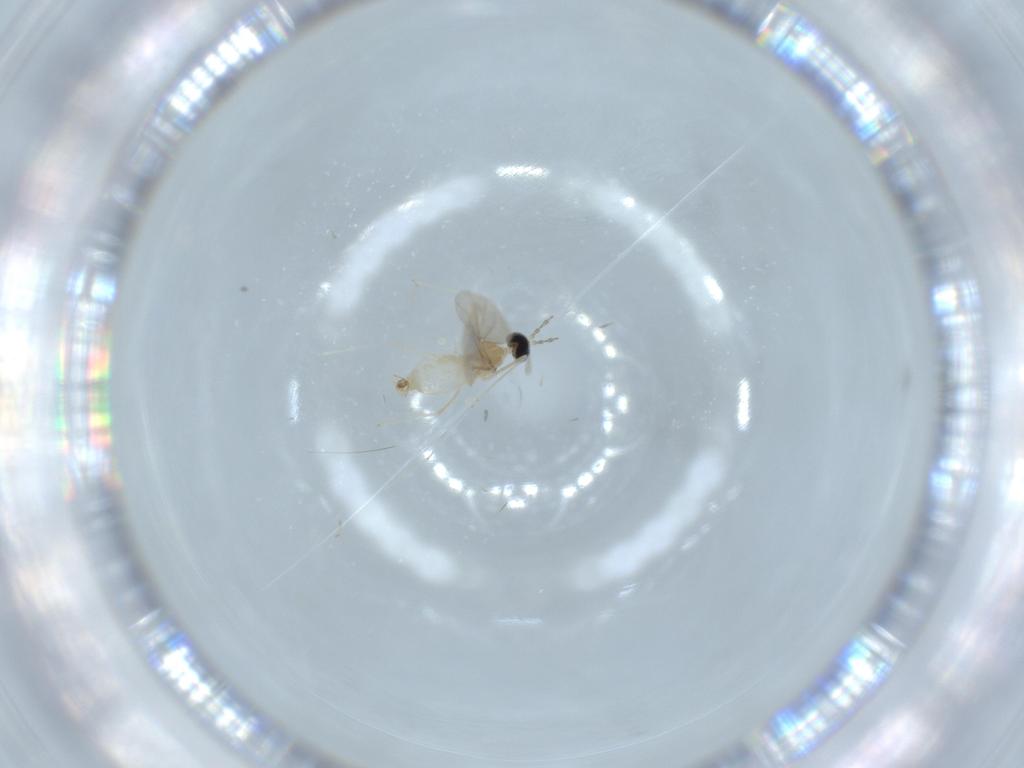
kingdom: Animalia
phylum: Arthropoda
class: Insecta
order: Diptera
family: Cecidomyiidae
